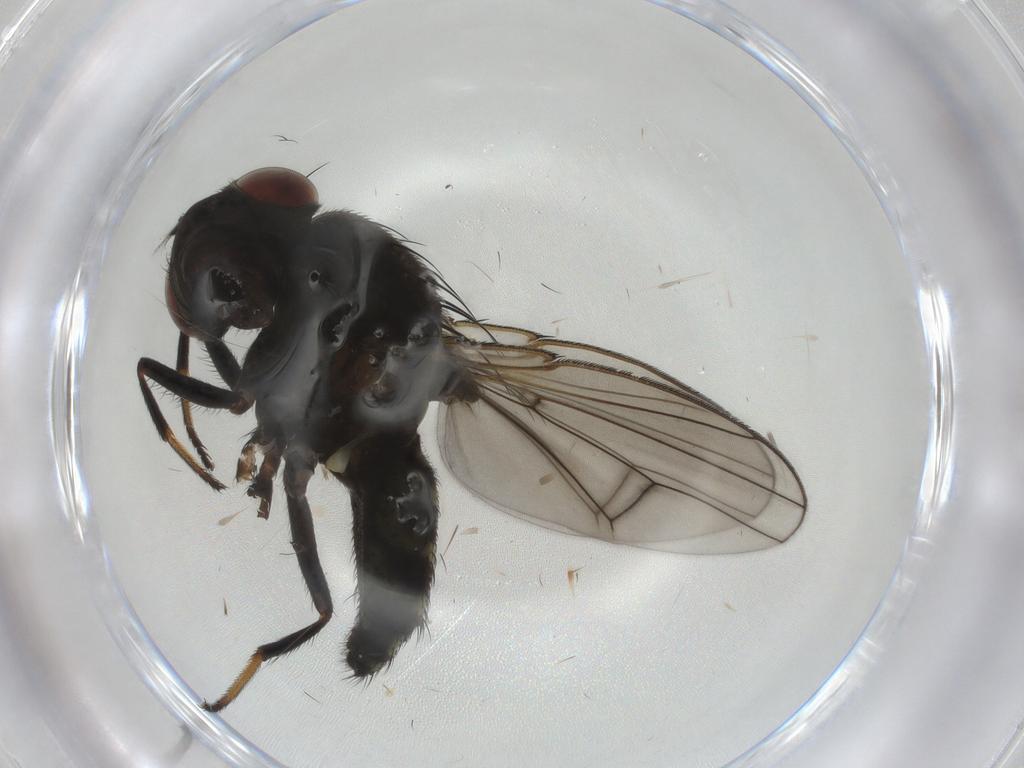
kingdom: Animalia
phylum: Arthropoda
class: Insecta
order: Diptera
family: Ephydridae
